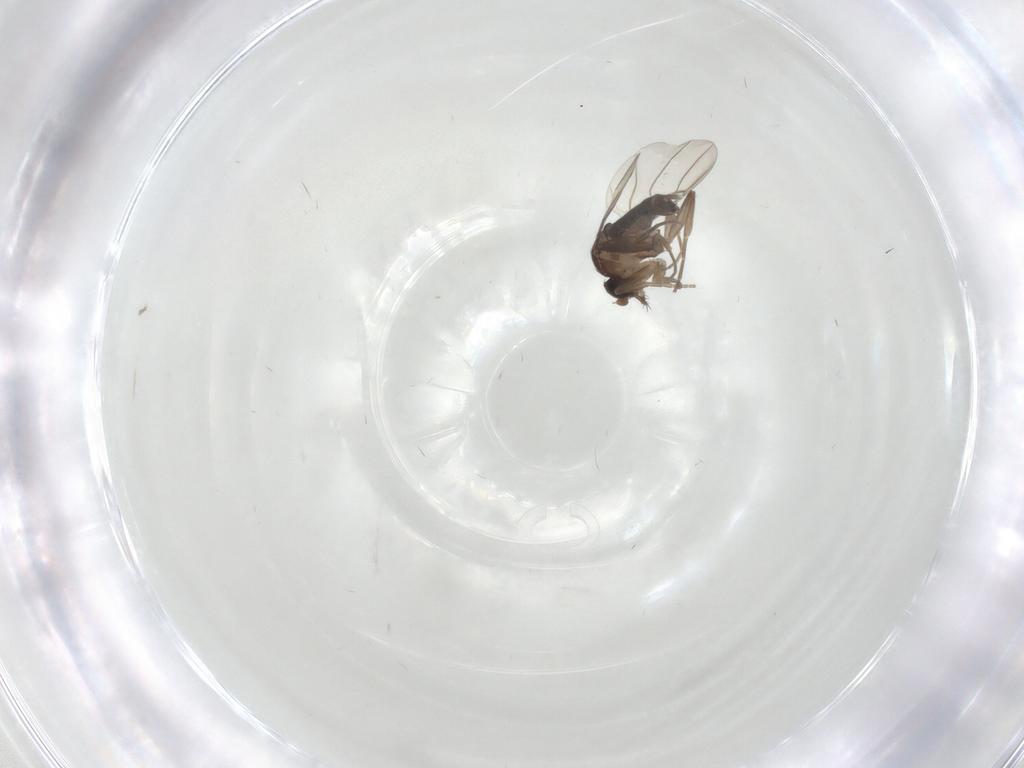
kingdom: Animalia
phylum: Arthropoda
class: Insecta
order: Diptera
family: Phoridae
